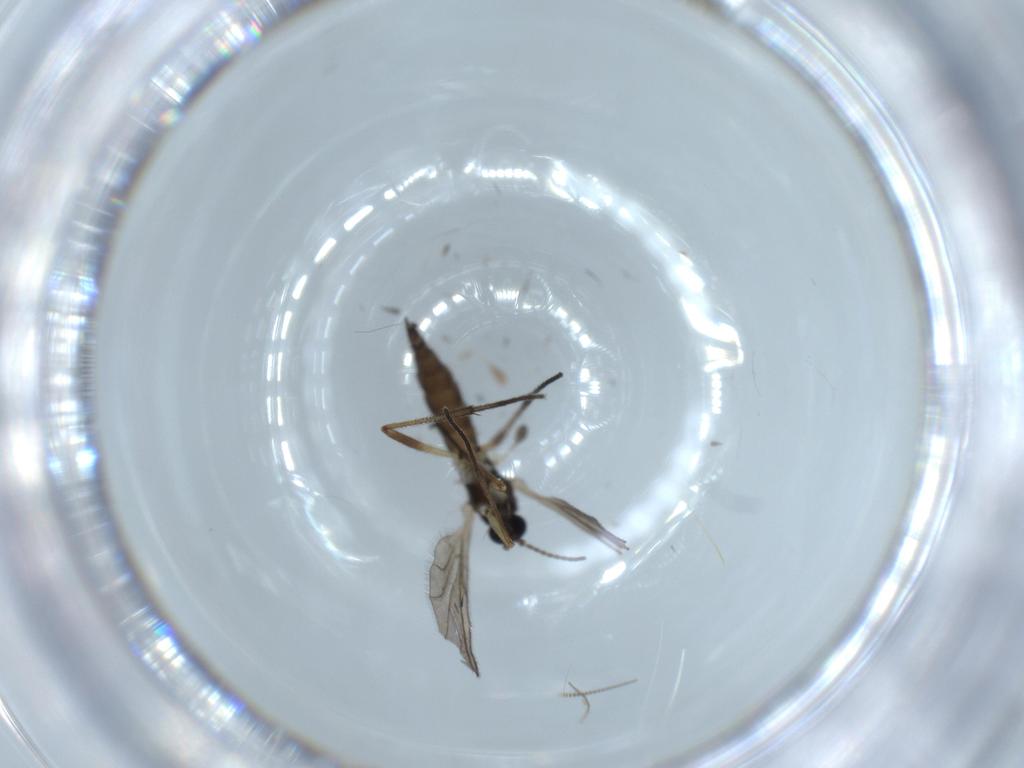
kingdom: Animalia
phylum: Arthropoda
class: Insecta
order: Diptera
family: Sciaridae
